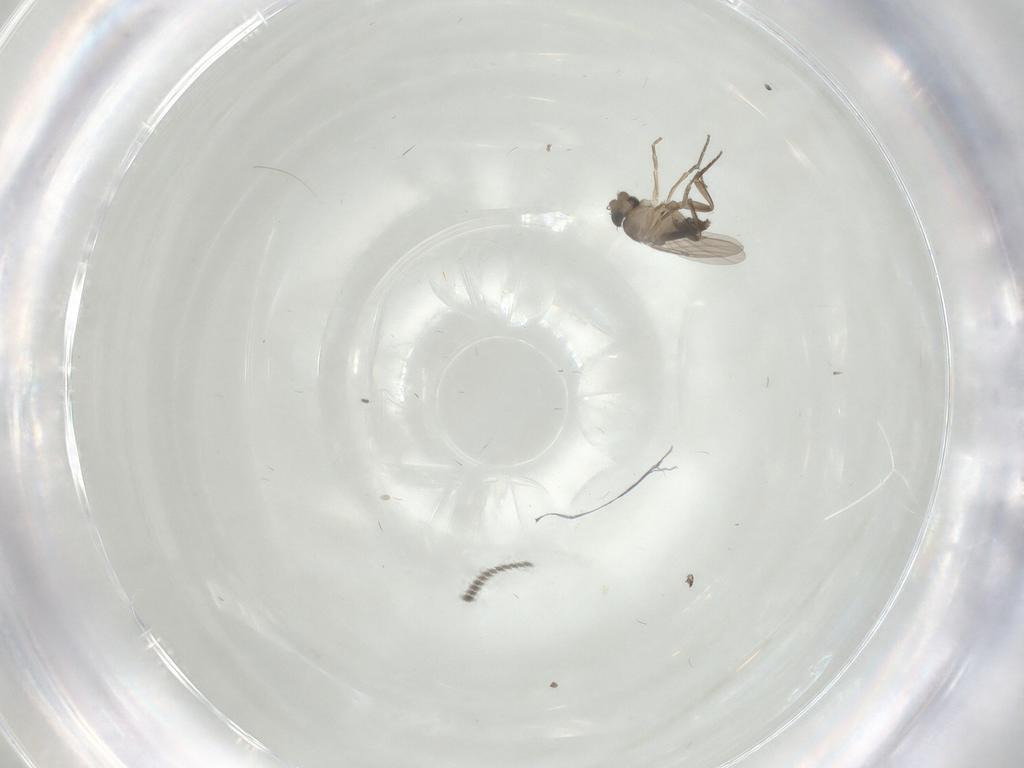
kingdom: Animalia
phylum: Arthropoda
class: Insecta
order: Diptera
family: Phoridae
